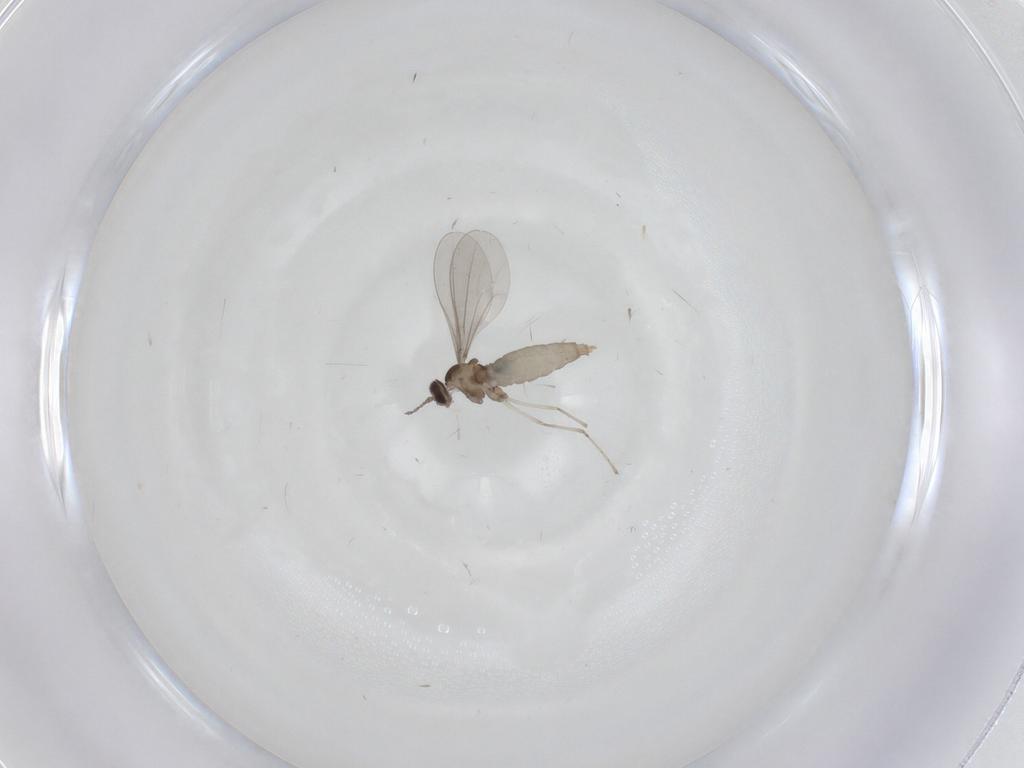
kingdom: Animalia
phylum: Arthropoda
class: Insecta
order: Diptera
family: Cecidomyiidae
